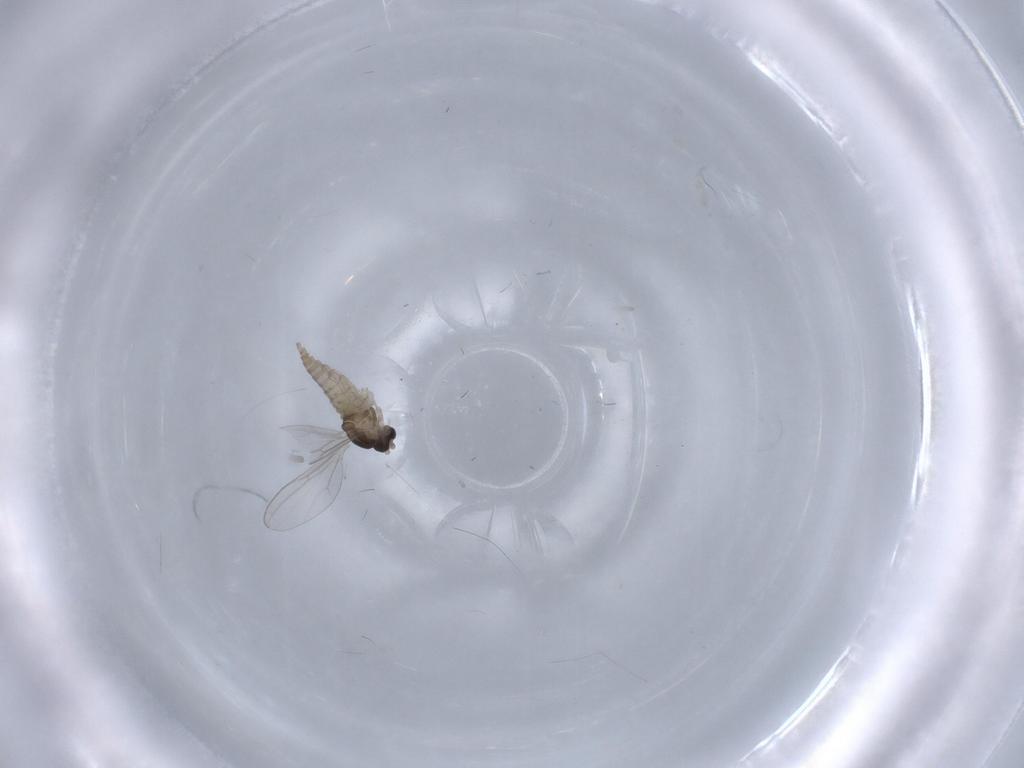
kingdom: Animalia
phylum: Arthropoda
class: Insecta
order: Diptera
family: Cecidomyiidae
